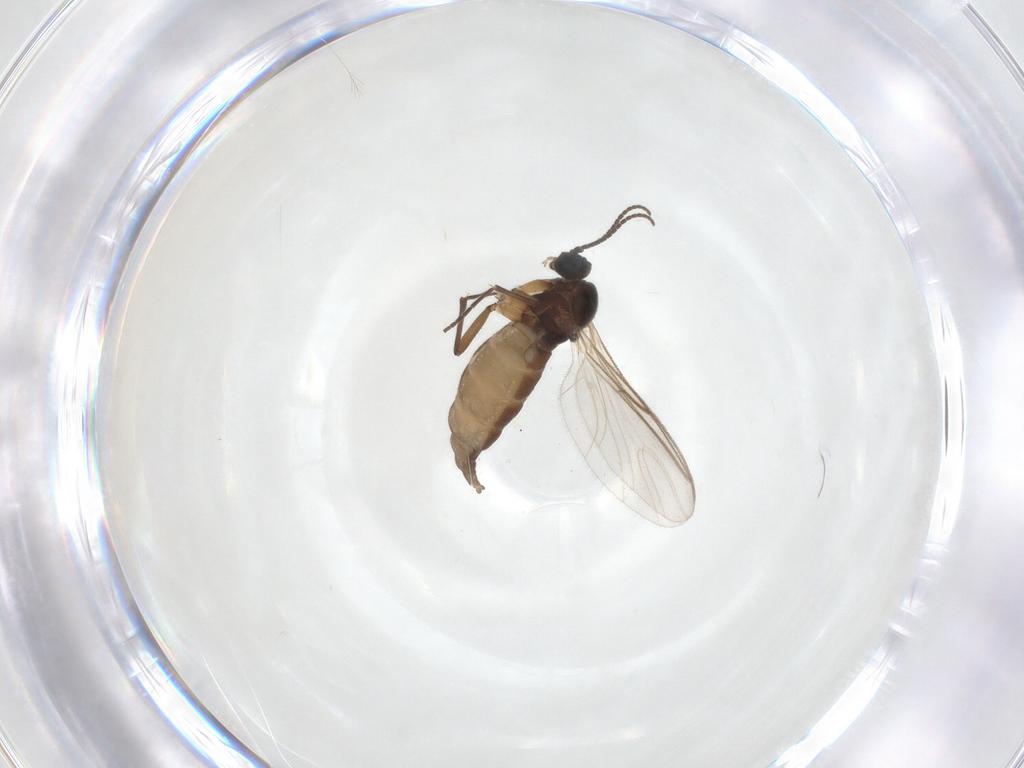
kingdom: Animalia
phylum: Arthropoda
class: Insecta
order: Diptera
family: Sciaridae
